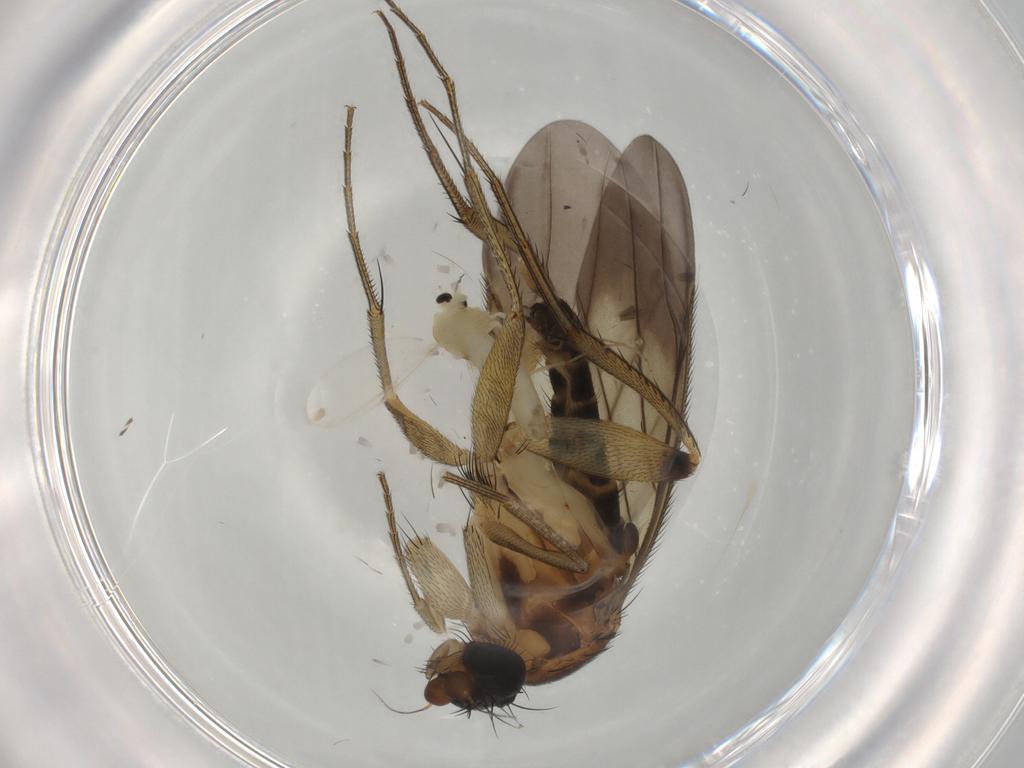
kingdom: Animalia
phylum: Arthropoda
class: Insecta
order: Diptera
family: Phoridae
